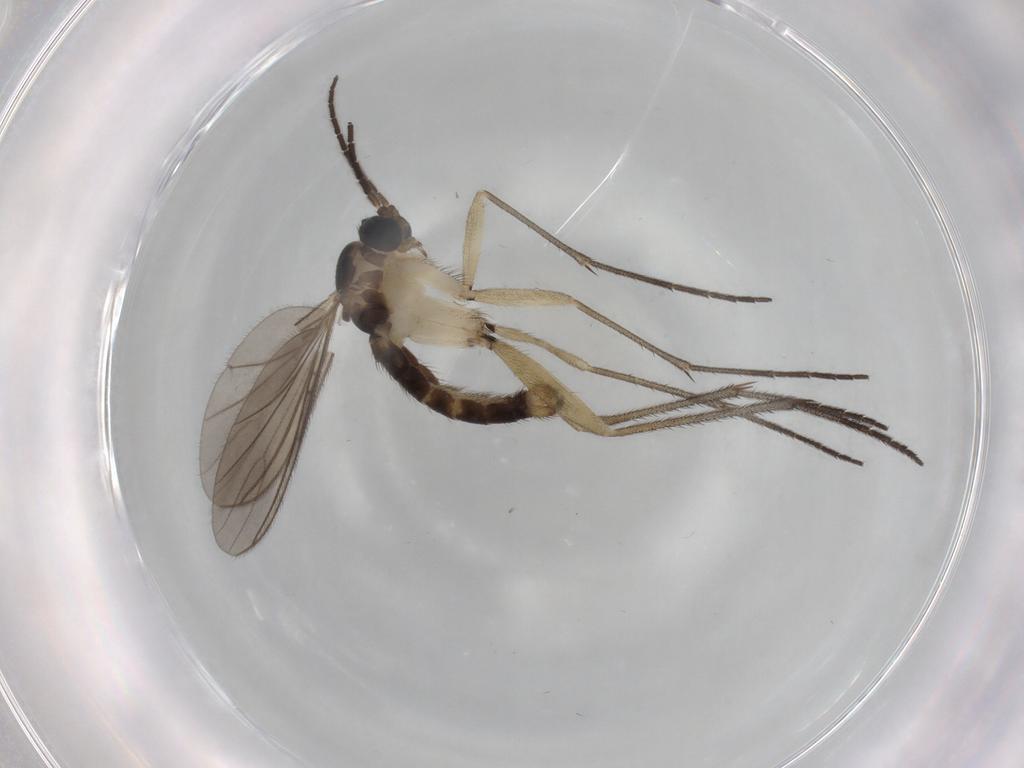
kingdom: Animalia
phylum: Arthropoda
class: Insecta
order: Diptera
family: Sciaridae
